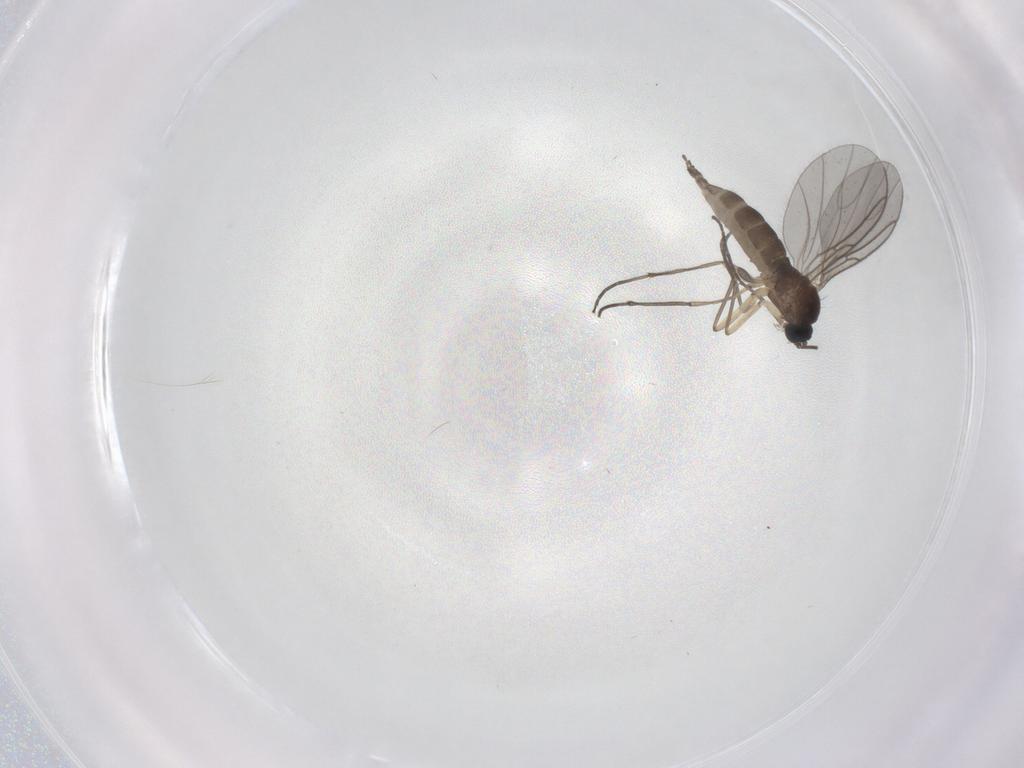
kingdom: Animalia
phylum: Arthropoda
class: Insecta
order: Diptera
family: Sciaridae
